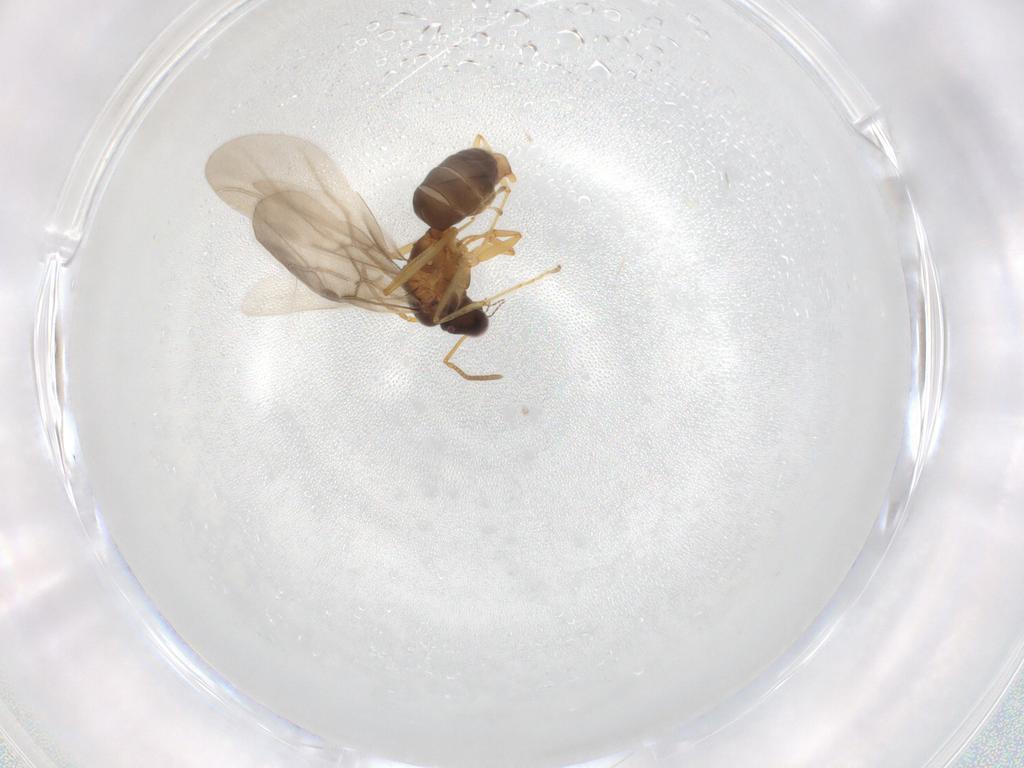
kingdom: Animalia
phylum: Arthropoda
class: Insecta
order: Hymenoptera
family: Formicidae
